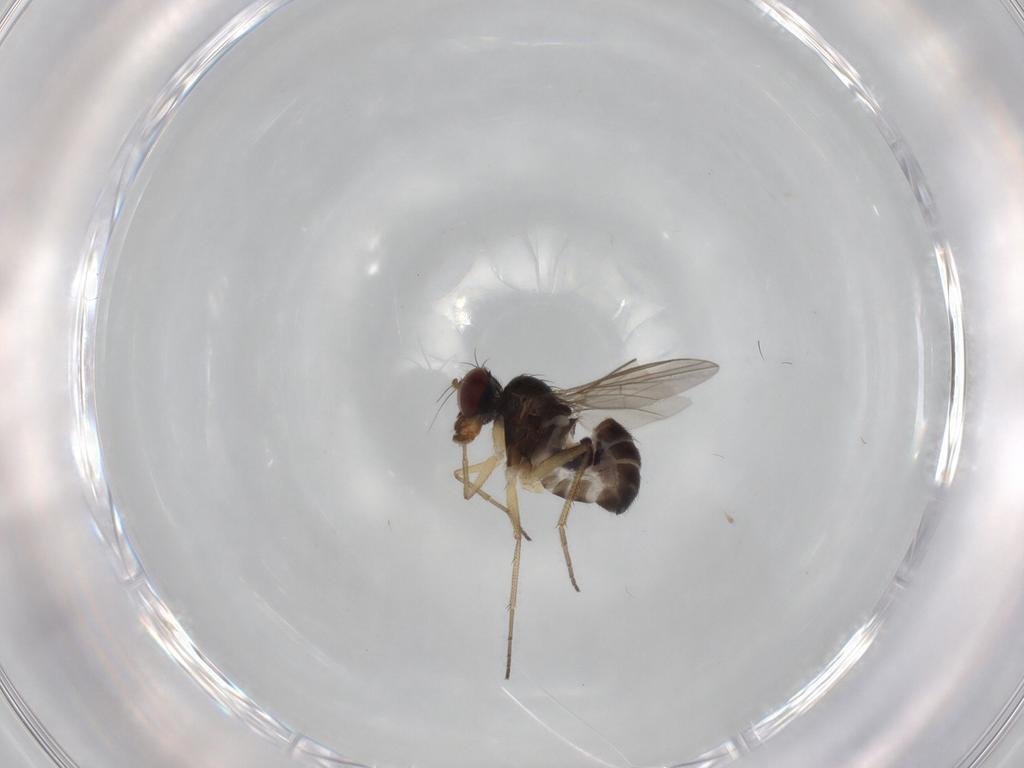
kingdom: Animalia
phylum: Arthropoda
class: Insecta
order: Diptera
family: Dolichopodidae
